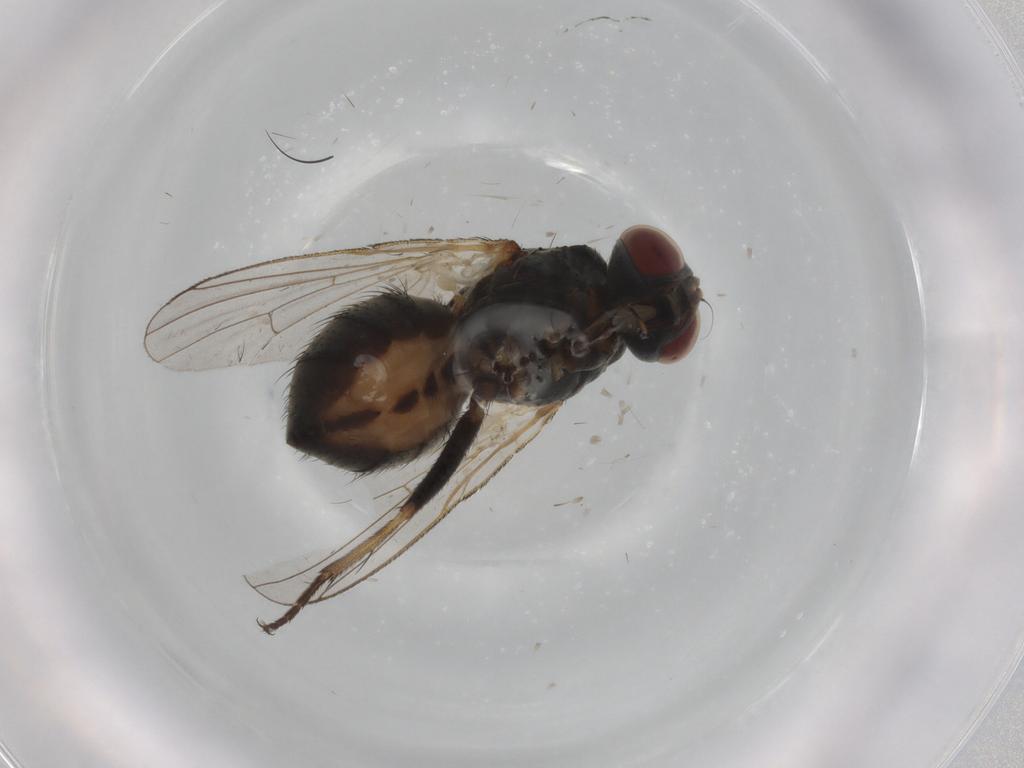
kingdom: Animalia
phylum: Arthropoda
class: Insecta
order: Diptera
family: Muscidae
